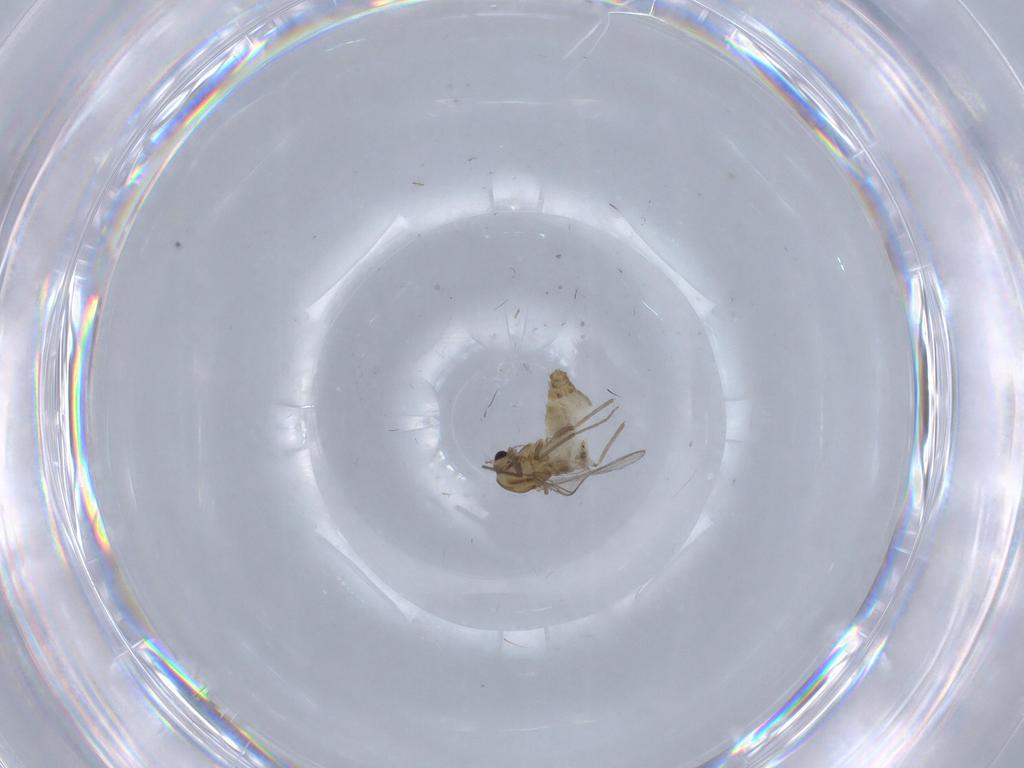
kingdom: Animalia
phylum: Arthropoda
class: Insecta
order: Diptera
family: Chironomidae
